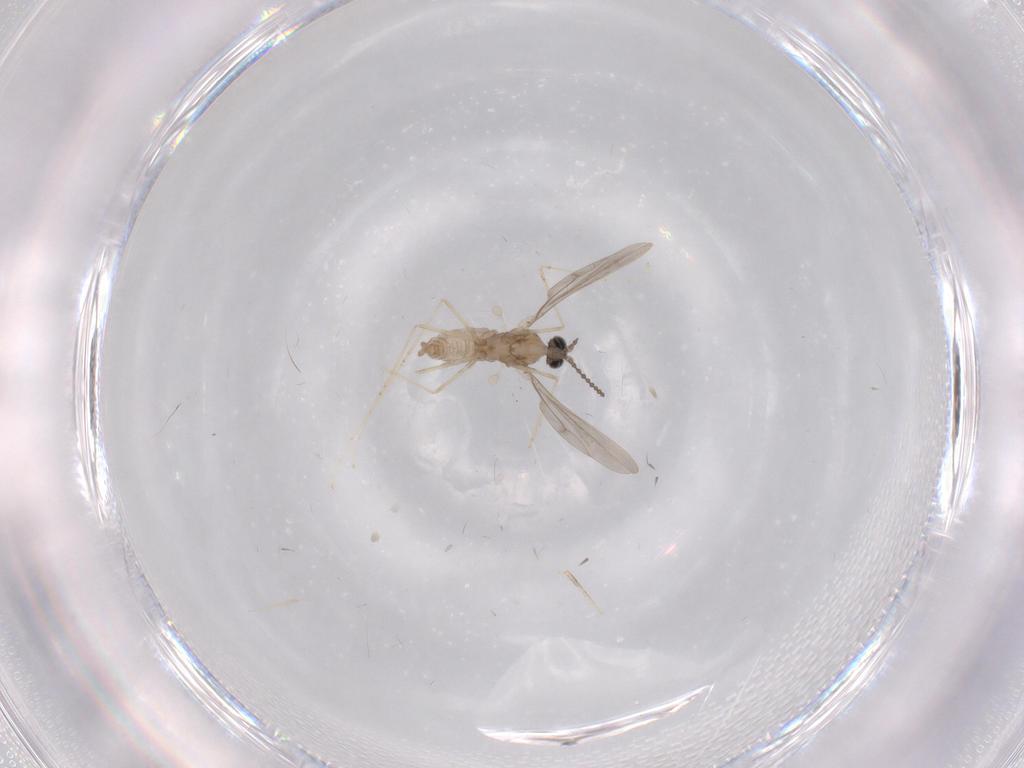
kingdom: Animalia
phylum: Arthropoda
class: Insecta
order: Diptera
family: Cecidomyiidae
